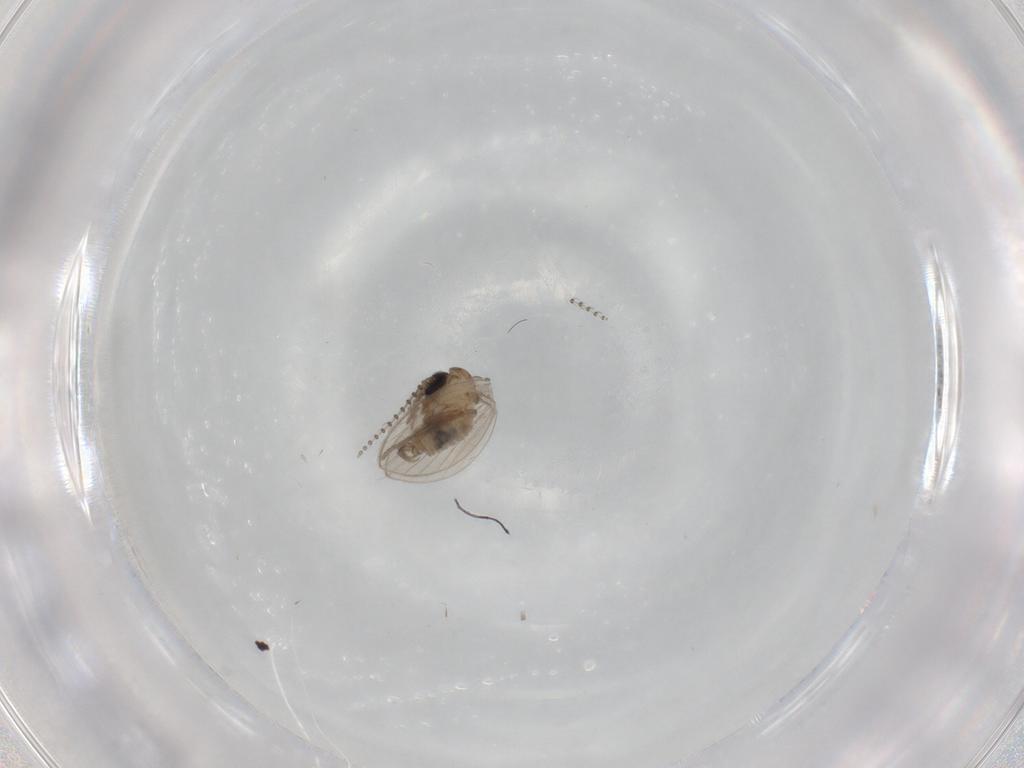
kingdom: Animalia
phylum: Arthropoda
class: Insecta
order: Diptera
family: Psychodidae
